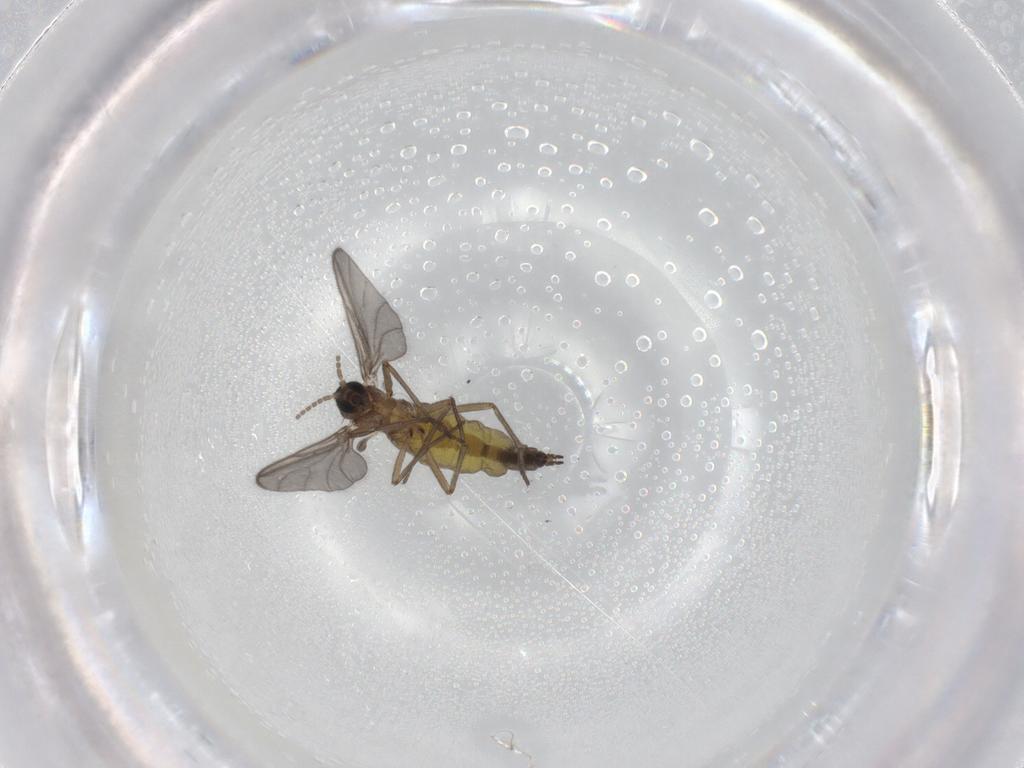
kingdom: Animalia
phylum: Arthropoda
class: Insecta
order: Diptera
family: Sciaridae
